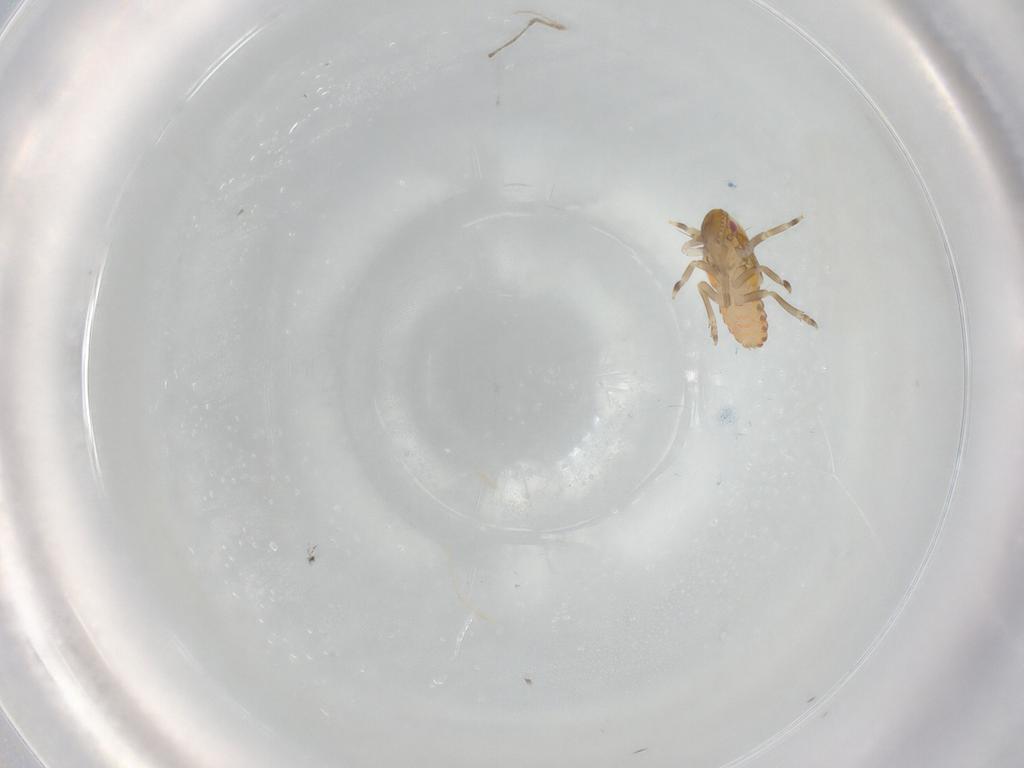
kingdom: Animalia
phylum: Arthropoda
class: Insecta
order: Hemiptera
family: Flatidae
